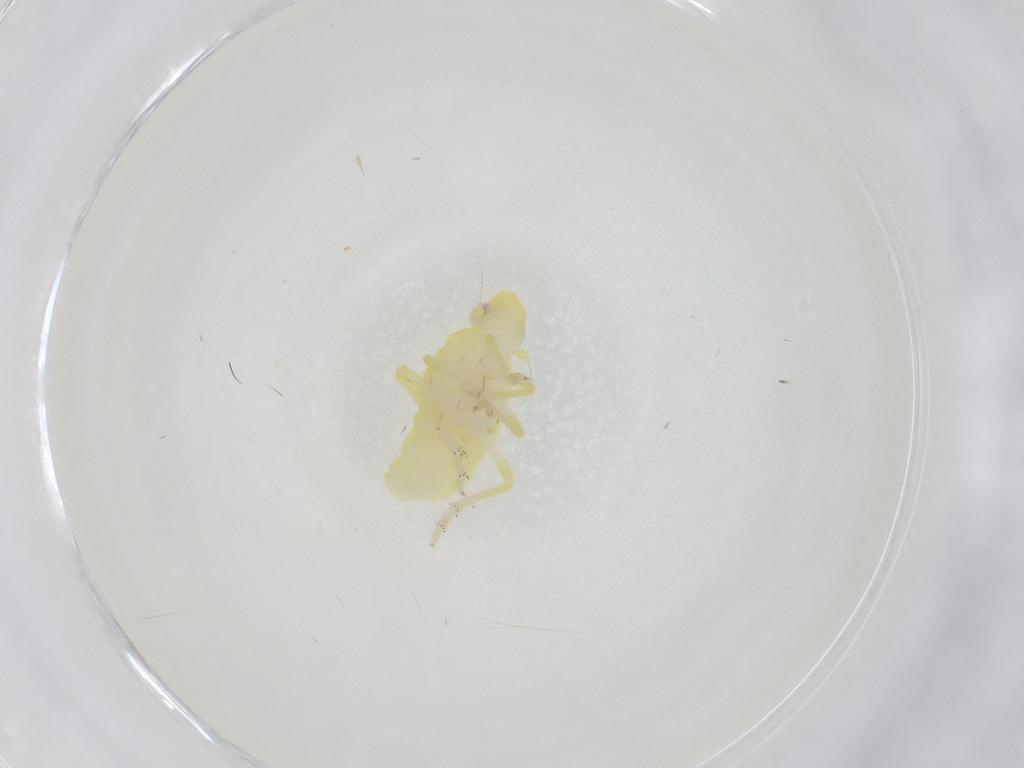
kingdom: Animalia
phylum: Arthropoda
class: Insecta
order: Hemiptera
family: Tropiduchidae
